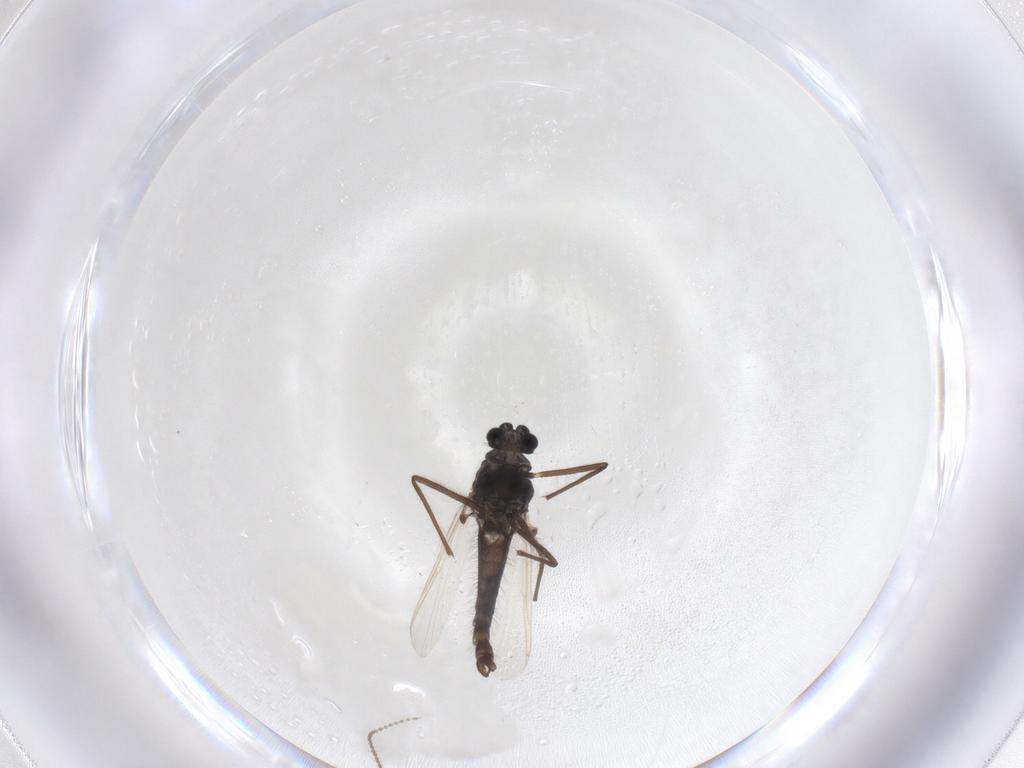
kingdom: Animalia
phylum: Arthropoda
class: Insecta
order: Diptera
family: Chironomidae
